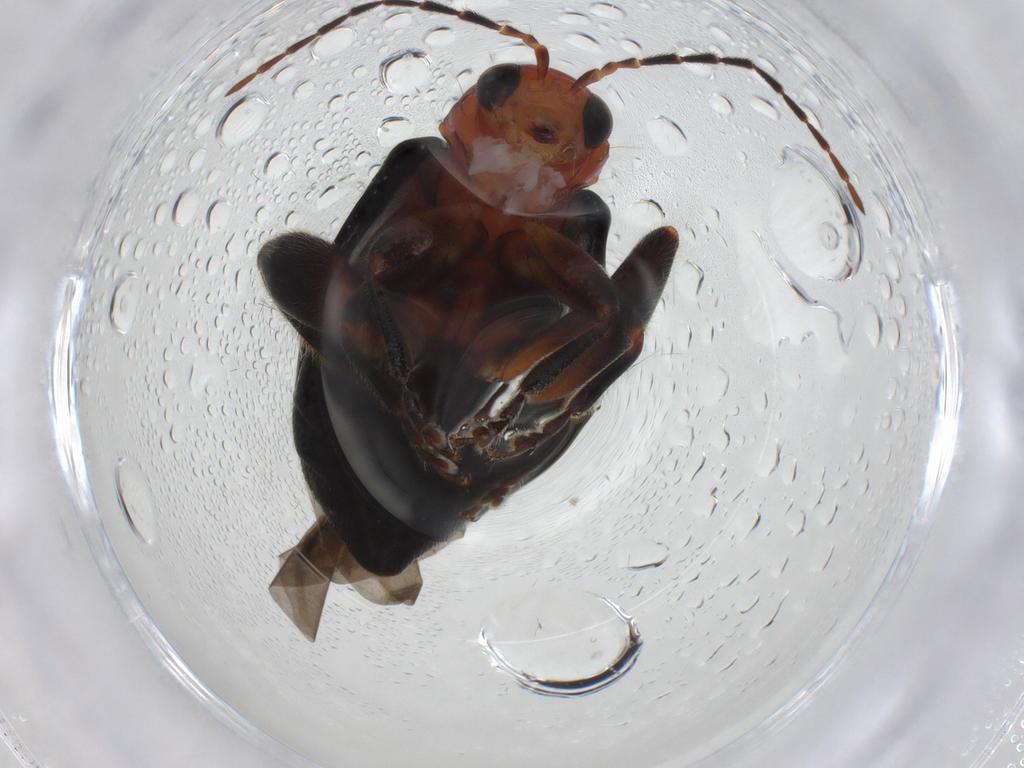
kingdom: Animalia
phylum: Arthropoda
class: Insecta
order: Coleoptera
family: Chrysomelidae
